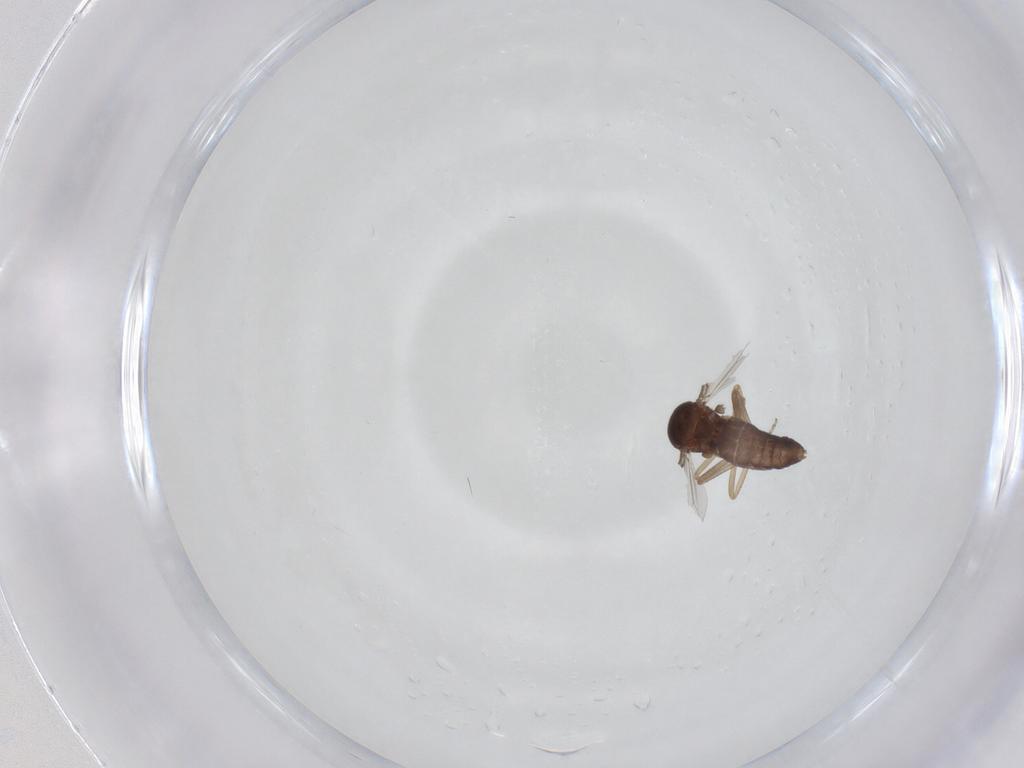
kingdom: Animalia
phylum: Arthropoda
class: Insecta
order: Diptera
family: Ceratopogonidae
